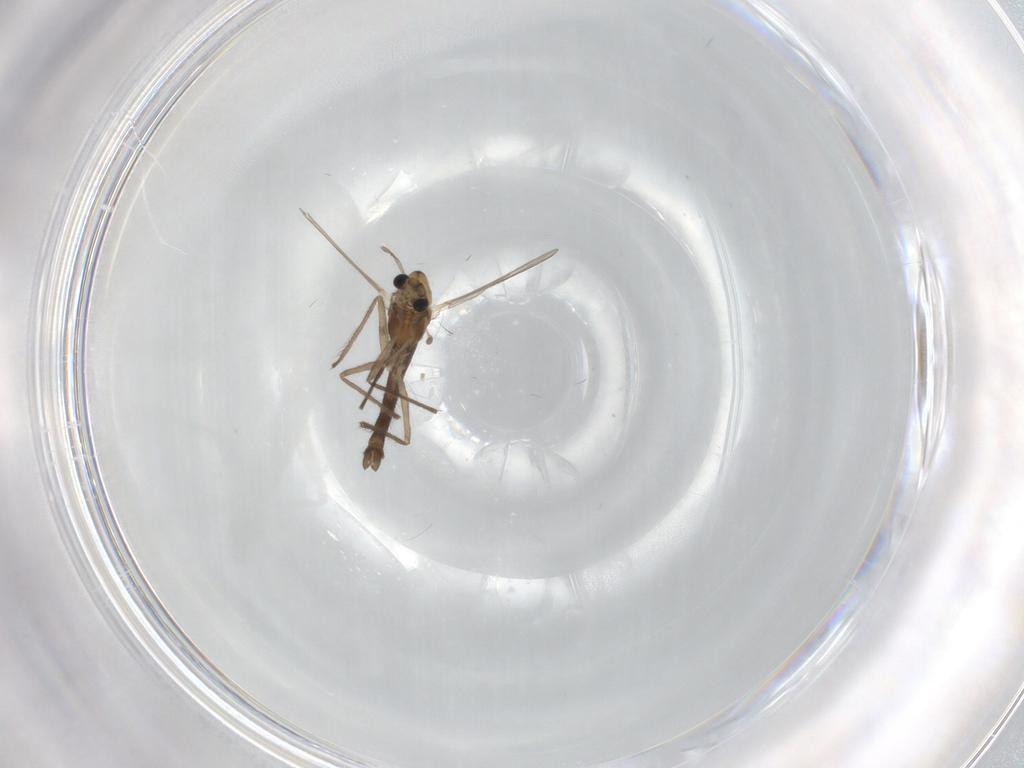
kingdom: Animalia
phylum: Arthropoda
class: Insecta
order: Diptera
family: Chironomidae
